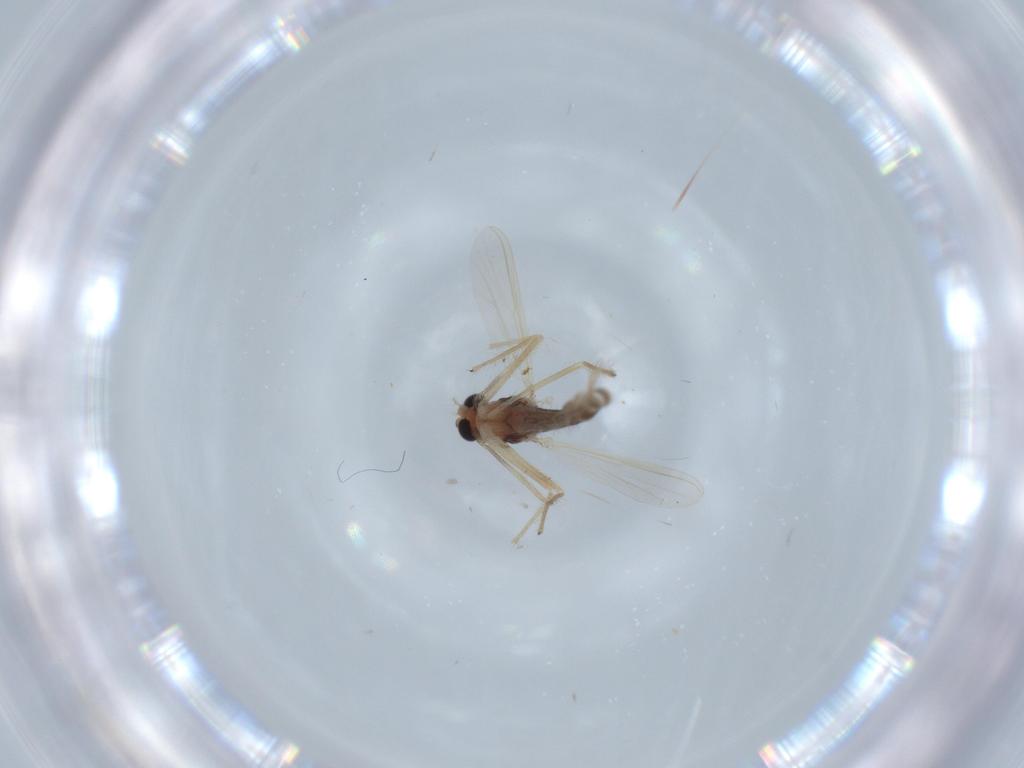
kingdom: Animalia
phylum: Arthropoda
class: Insecta
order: Diptera
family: Chironomidae
